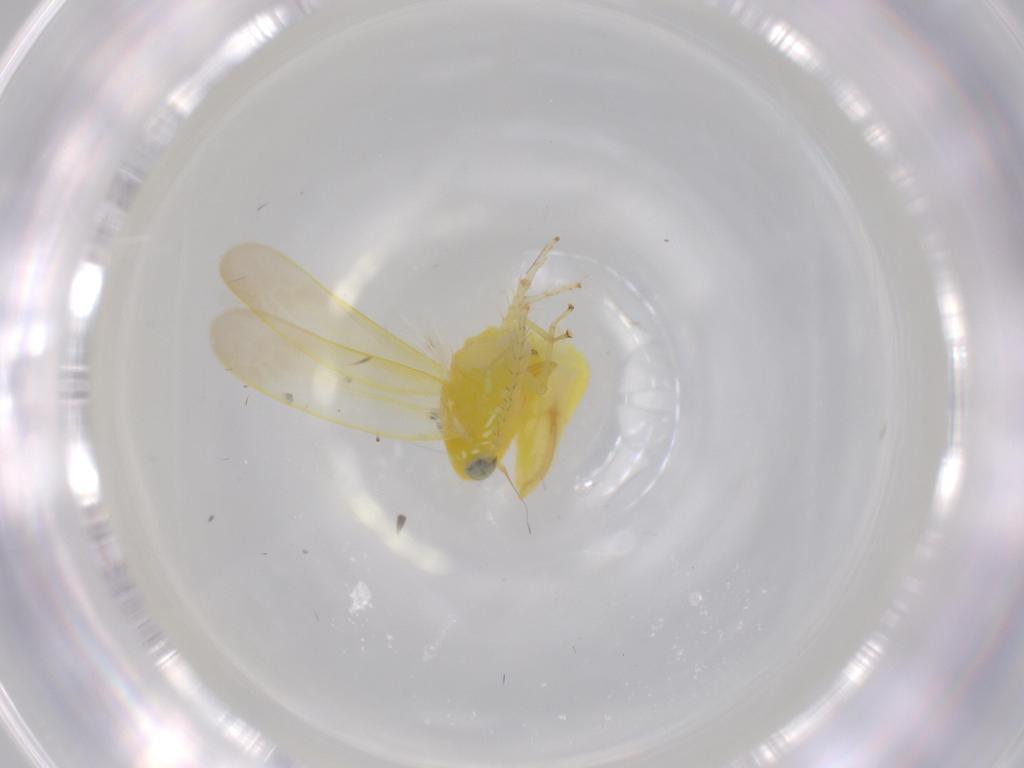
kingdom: Animalia
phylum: Arthropoda
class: Insecta
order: Hemiptera
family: Cicadellidae
